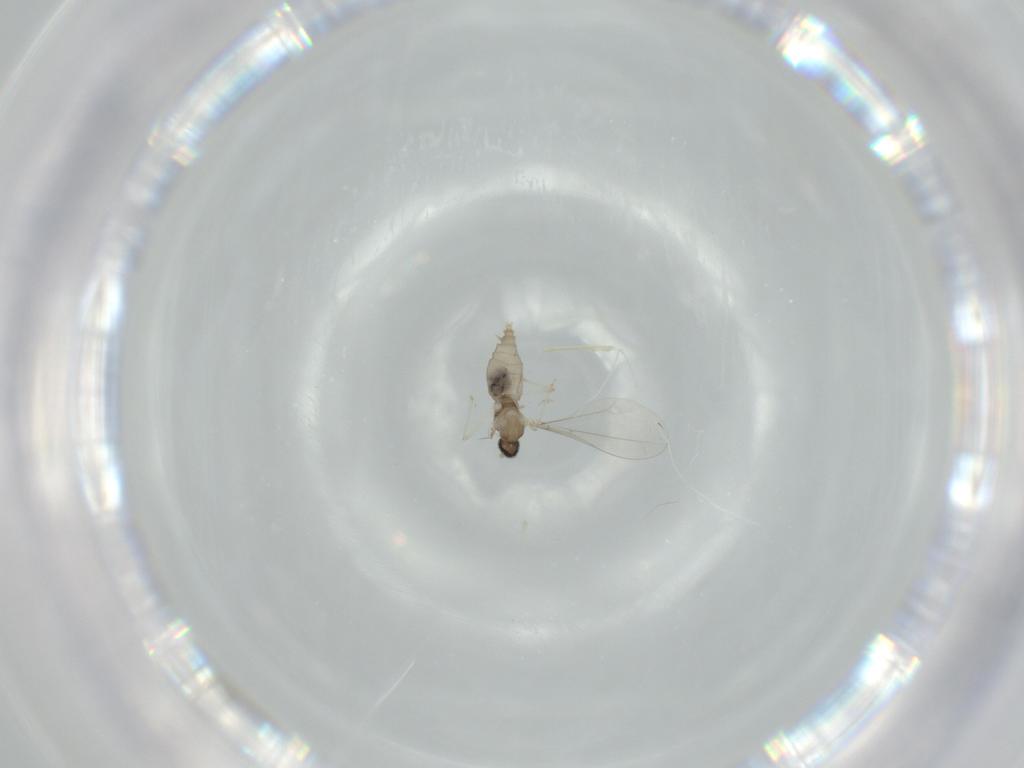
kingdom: Animalia
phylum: Arthropoda
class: Insecta
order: Diptera
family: Cecidomyiidae
